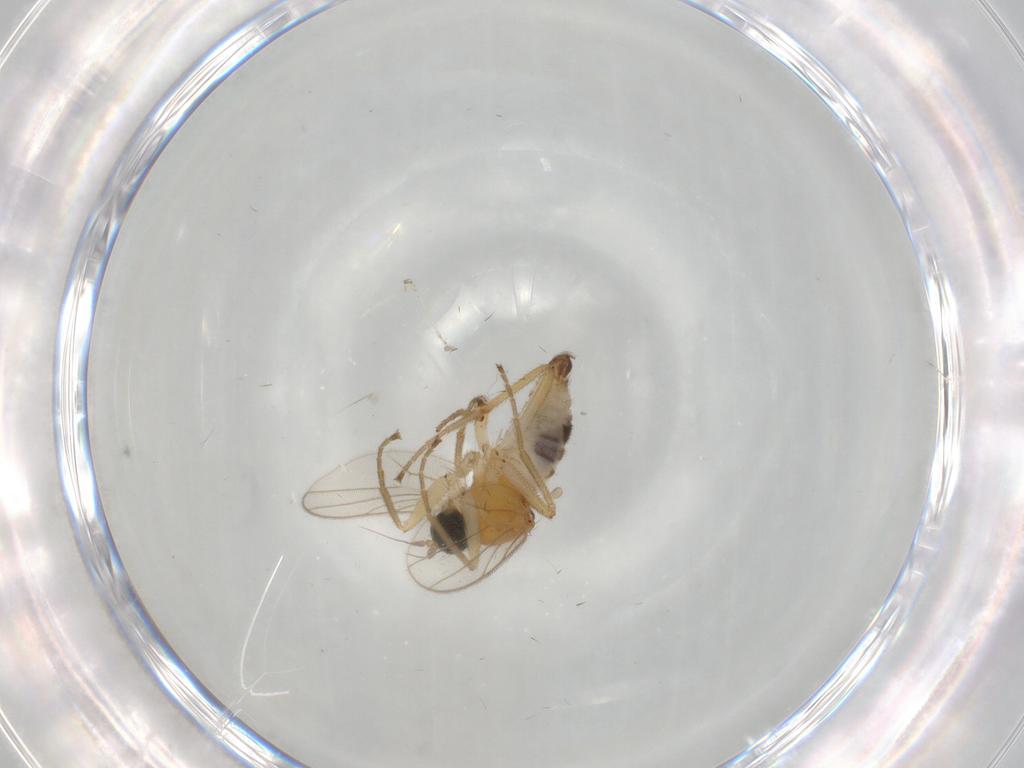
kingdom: Animalia
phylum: Arthropoda
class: Insecta
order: Diptera
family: Hybotidae
